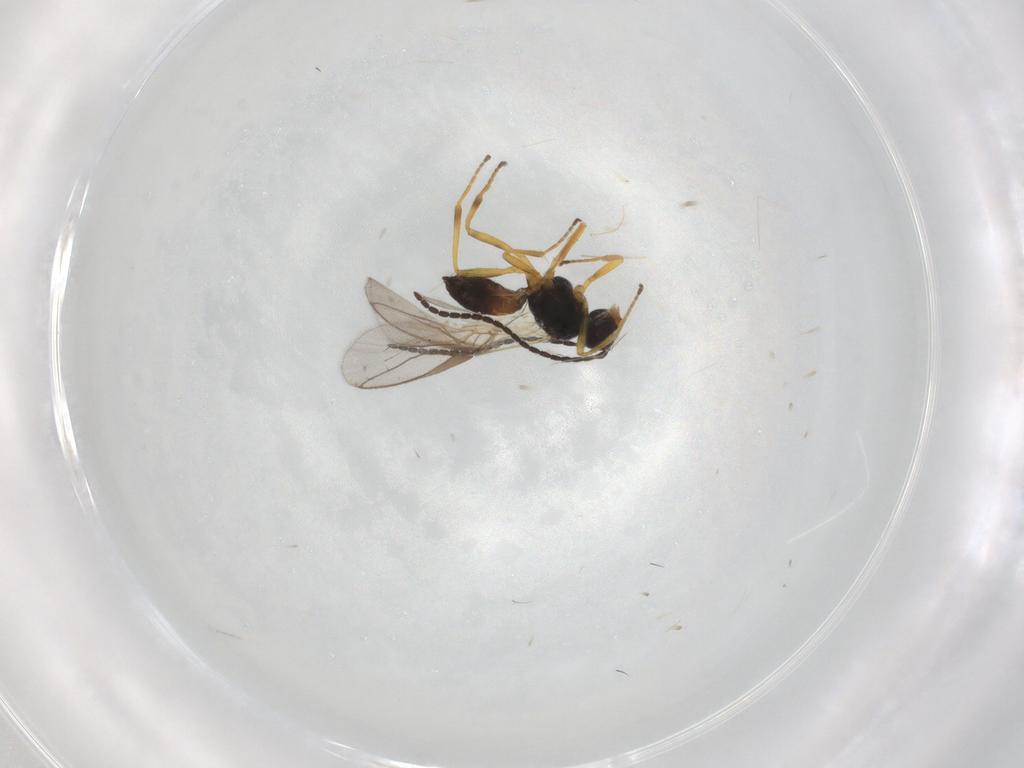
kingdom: Animalia
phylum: Arthropoda
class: Insecta
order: Hymenoptera
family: Braconidae
